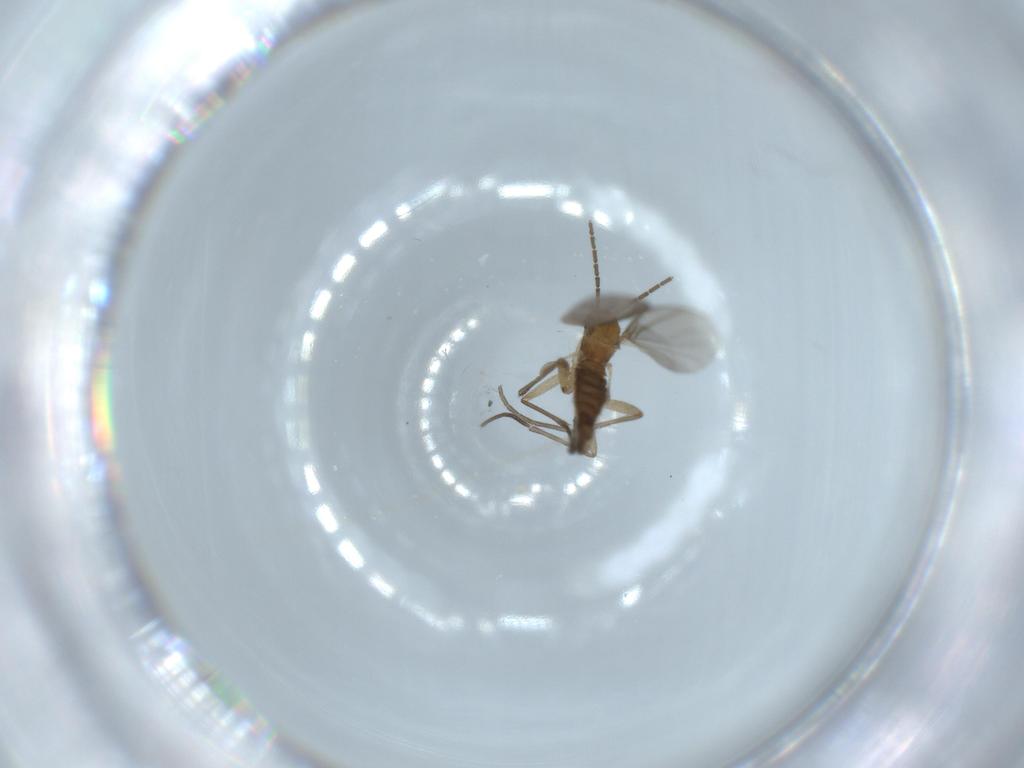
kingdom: Animalia
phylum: Arthropoda
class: Insecta
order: Diptera
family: Sciaridae
